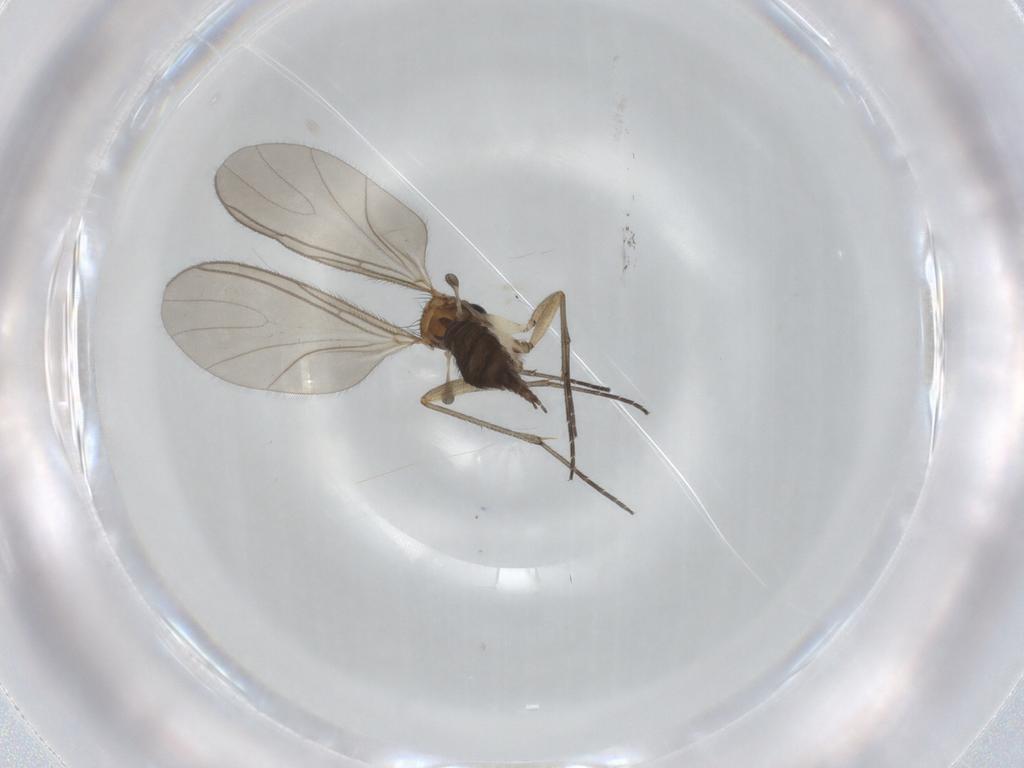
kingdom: Animalia
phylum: Arthropoda
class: Insecta
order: Diptera
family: Sciaridae
